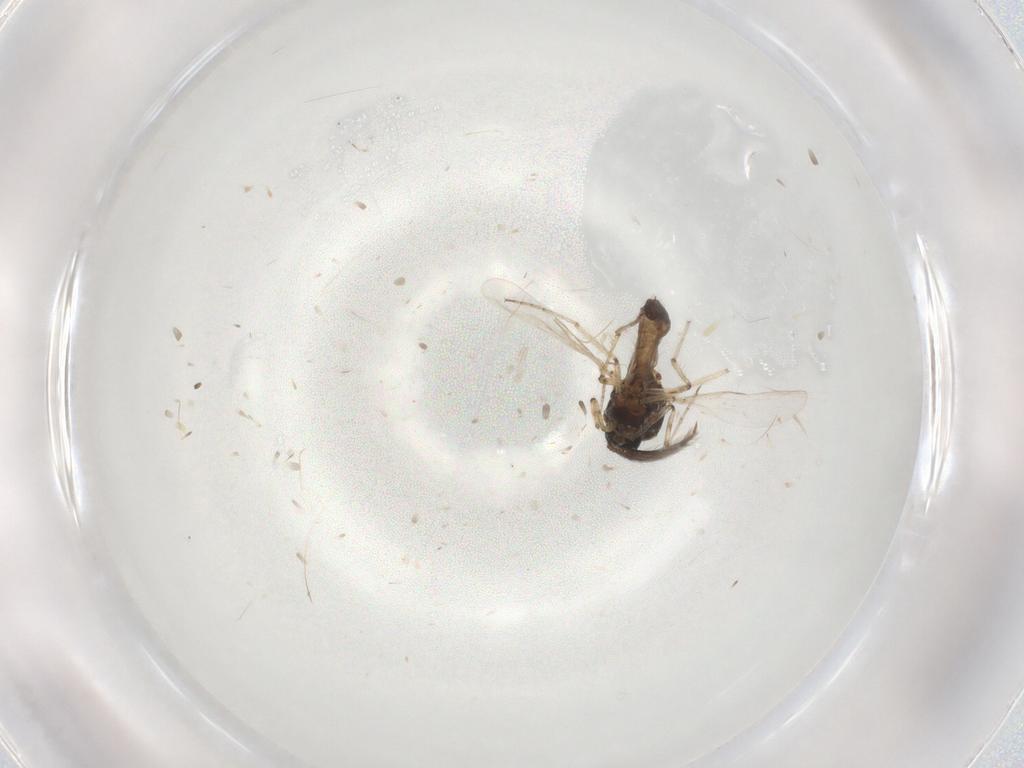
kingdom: Animalia
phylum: Arthropoda
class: Insecta
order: Diptera
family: Ceratopogonidae
